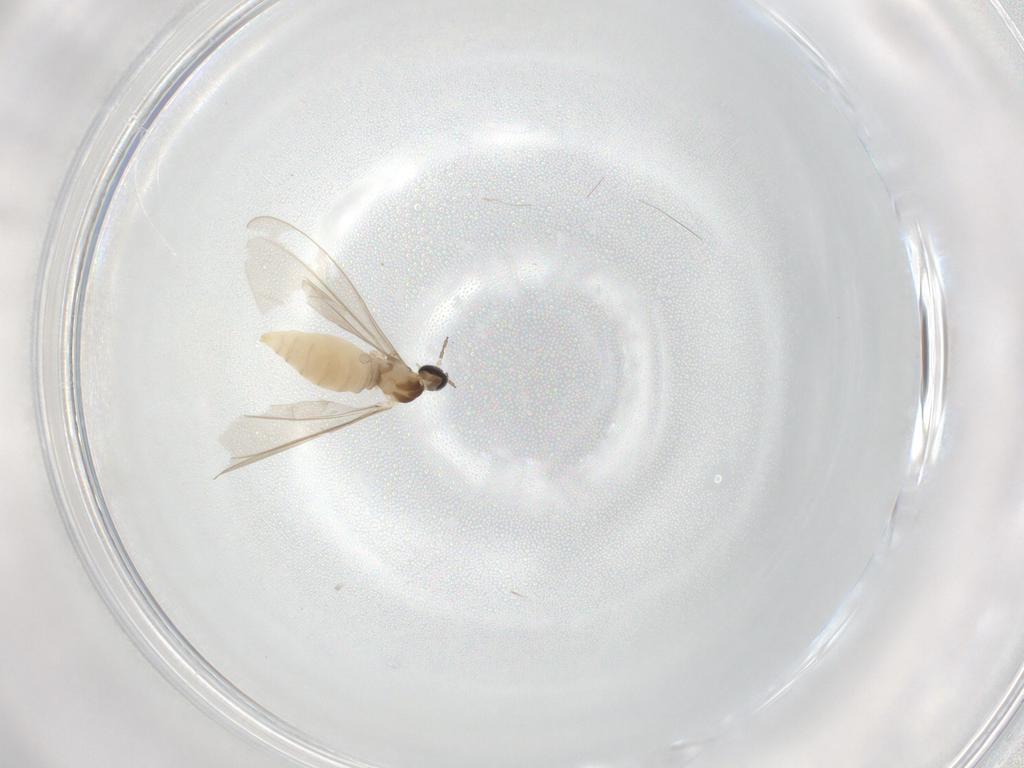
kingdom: Animalia
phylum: Arthropoda
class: Insecta
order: Diptera
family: Cecidomyiidae
